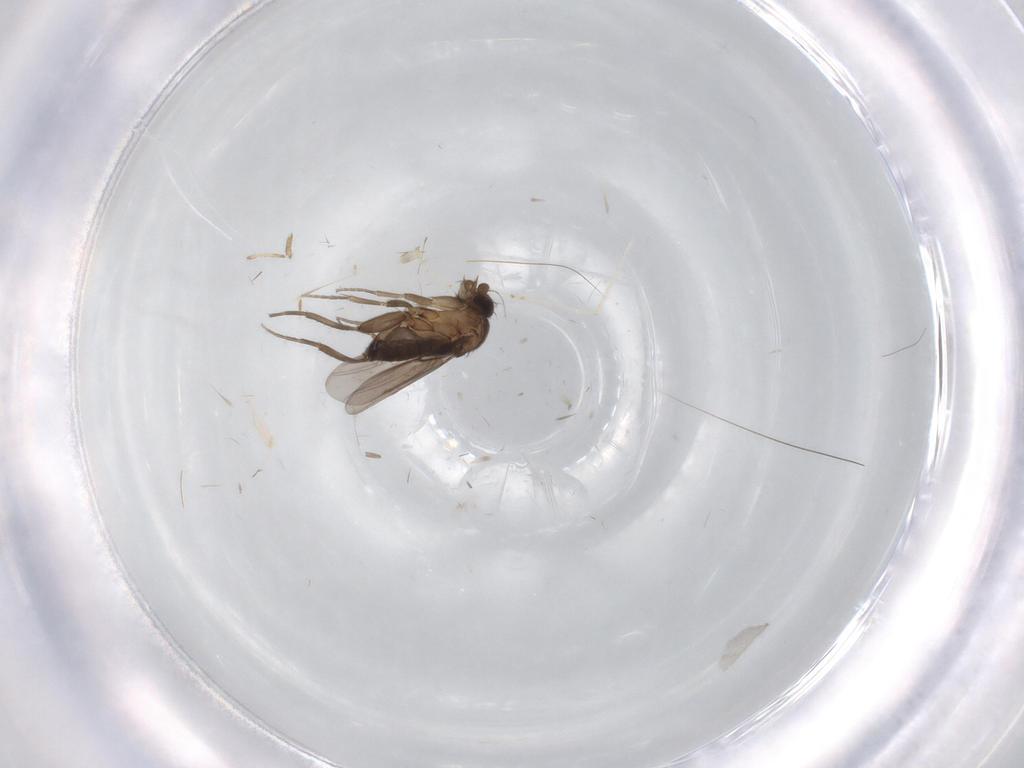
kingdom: Animalia
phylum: Arthropoda
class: Insecta
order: Diptera
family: Phoridae
